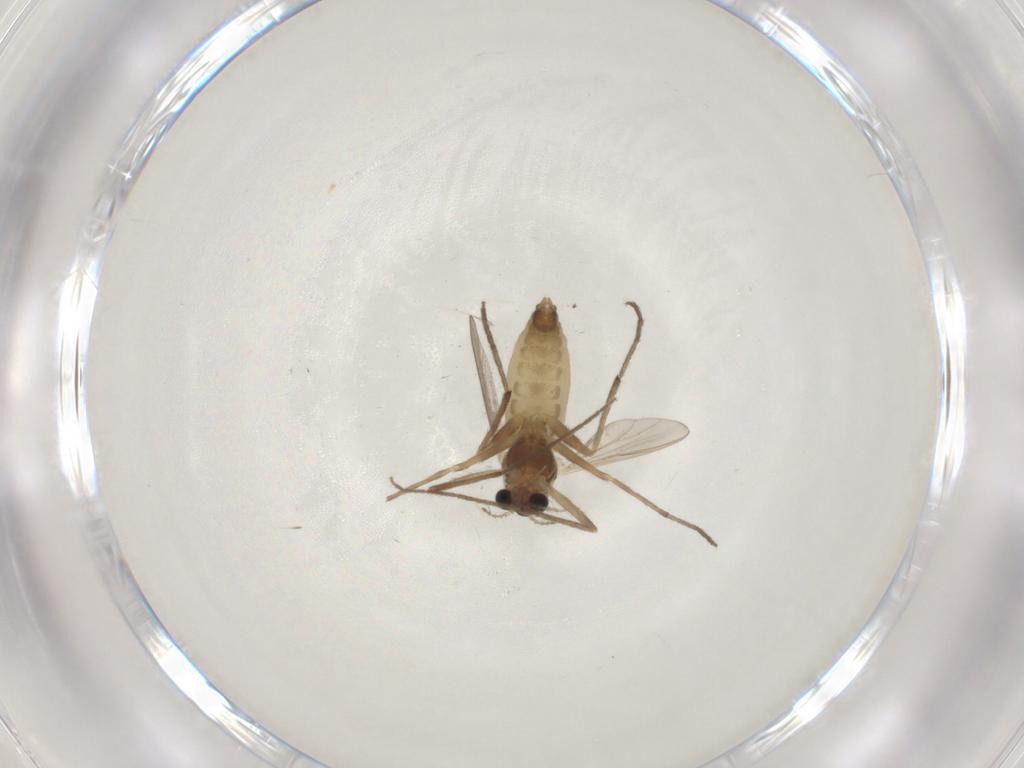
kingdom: Animalia
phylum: Arthropoda
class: Insecta
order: Diptera
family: Chironomidae
